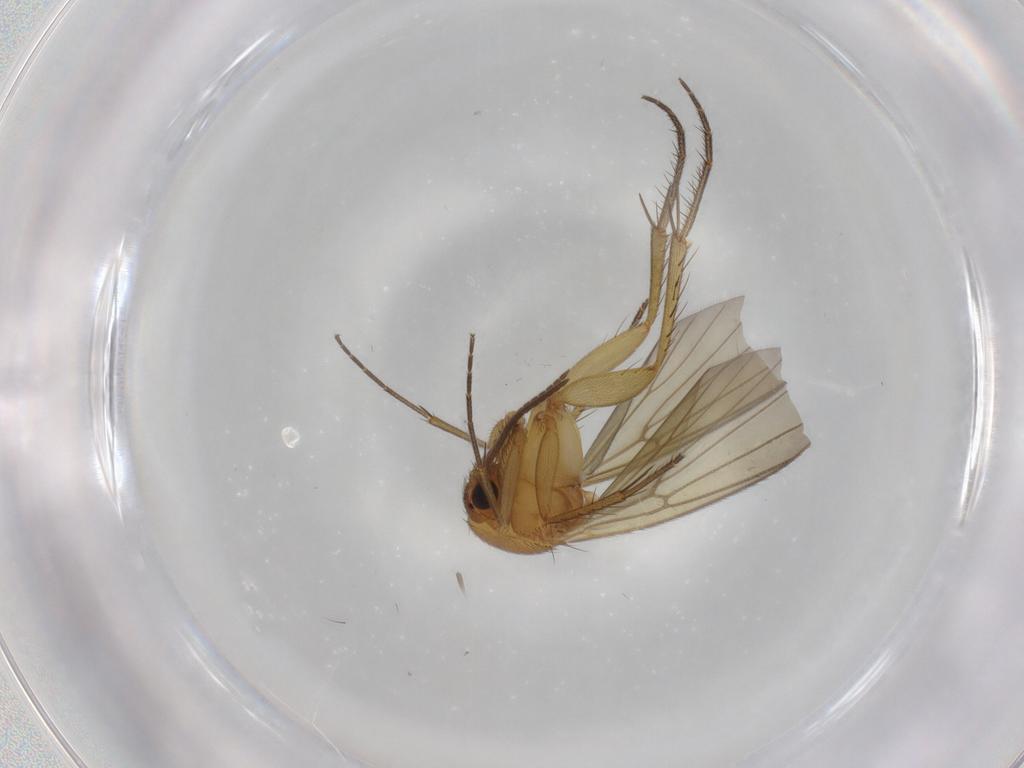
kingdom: Animalia
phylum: Arthropoda
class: Insecta
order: Diptera
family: Mycetophilidae
